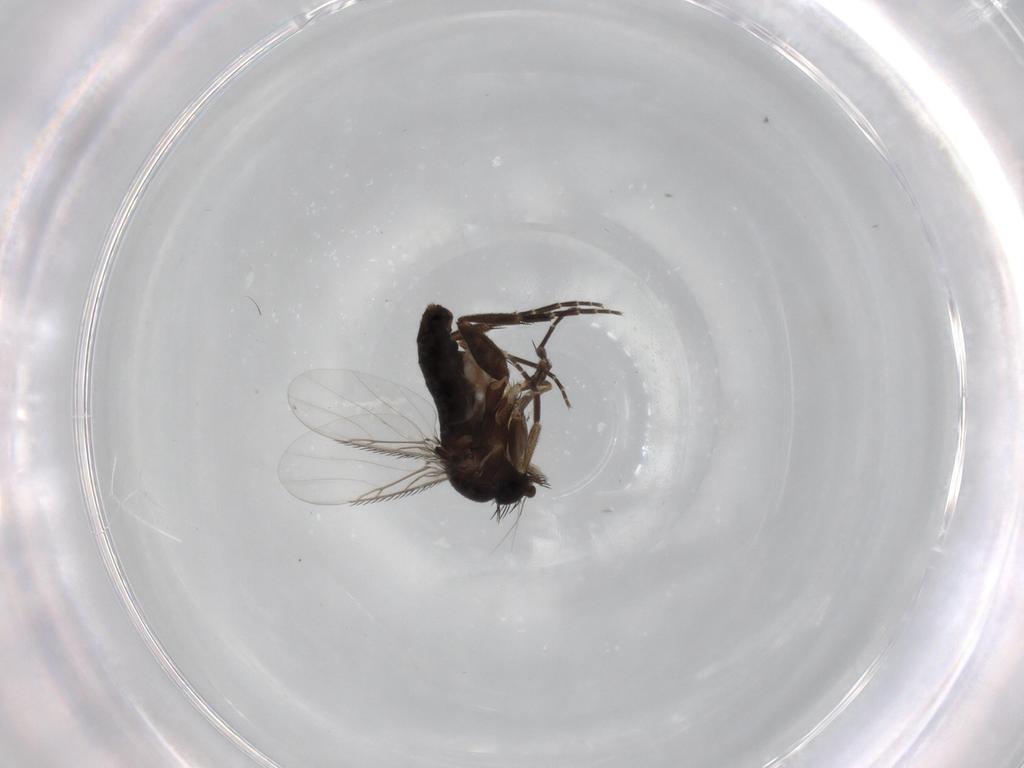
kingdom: Animalia
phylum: Arthropoda
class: Insecta
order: Diptera
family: Phoridae
